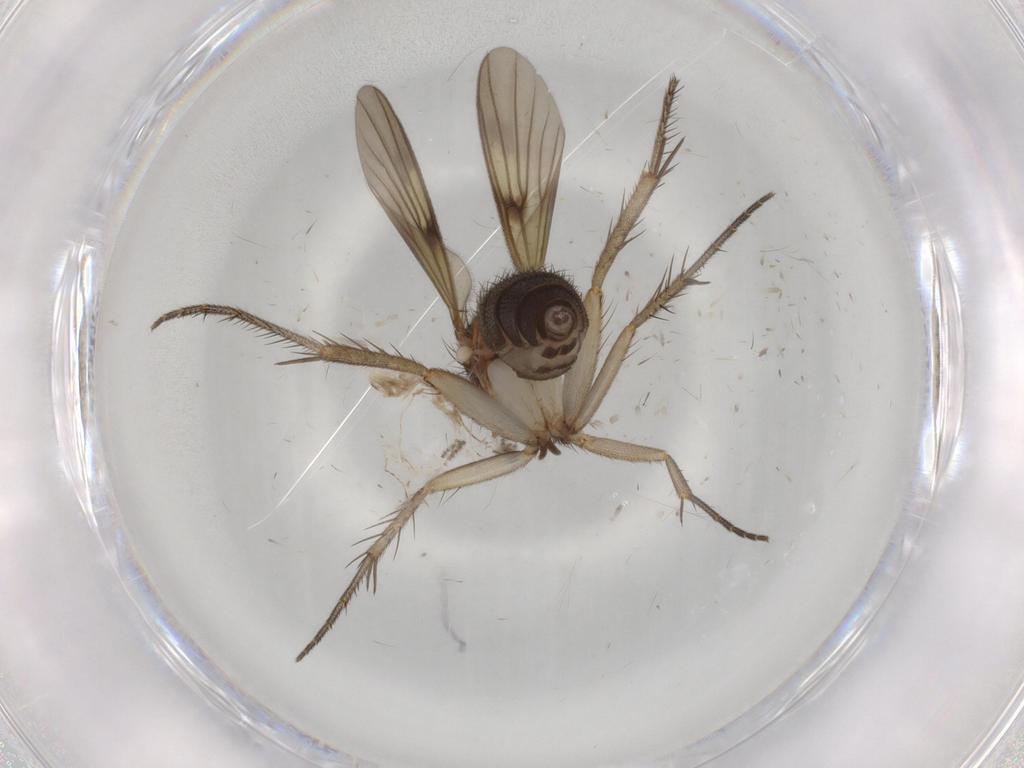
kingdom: Animalia
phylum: Arthropoda
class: Insecta
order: Diptera
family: Mycetophilidae
